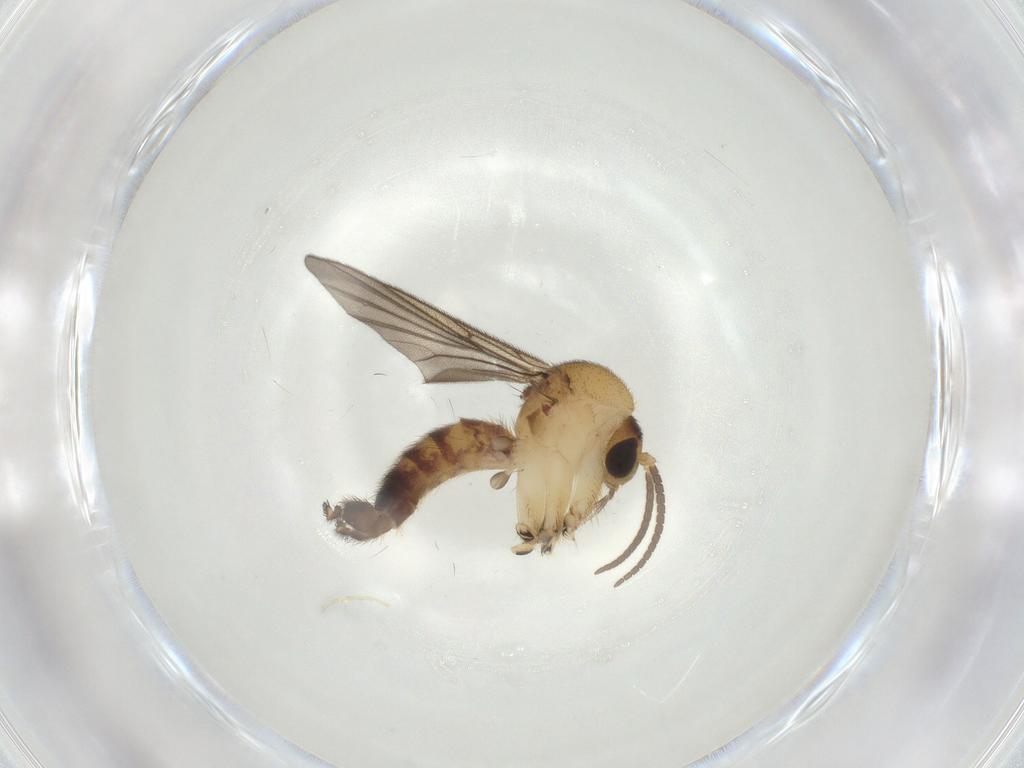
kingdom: Animalia
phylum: Arthropoda
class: Insecta
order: Diptera
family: Mycetophilidae
